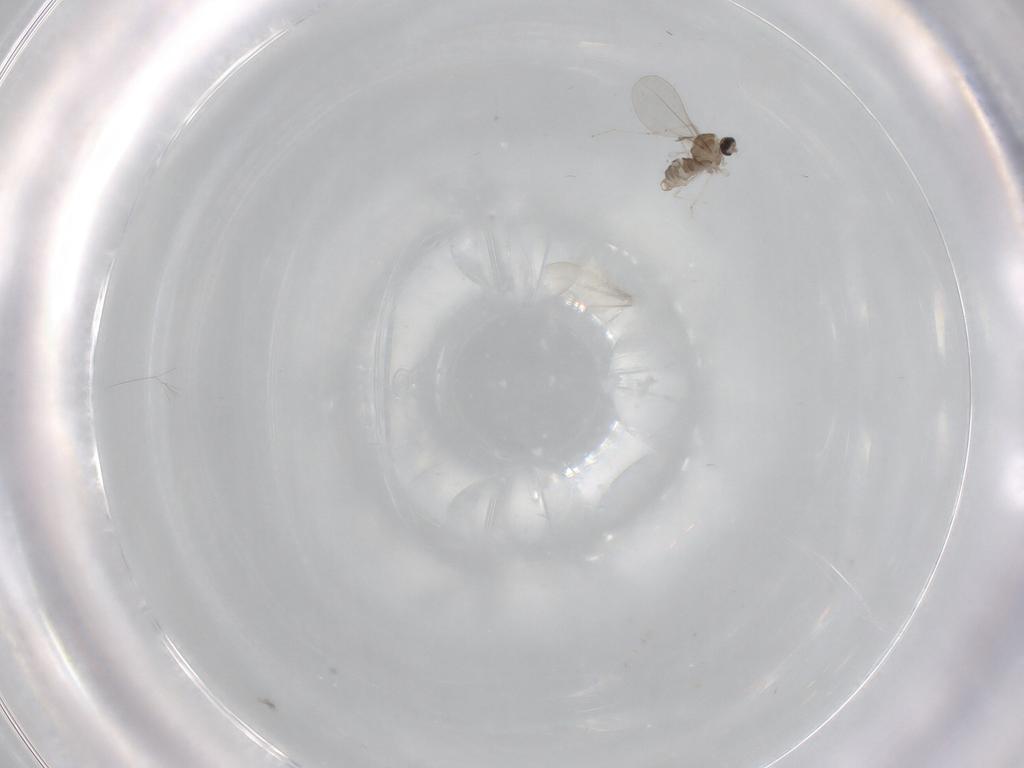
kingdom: Animalia
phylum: Arthropoda
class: Insecta
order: Diptera
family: Cecidomyiidae
